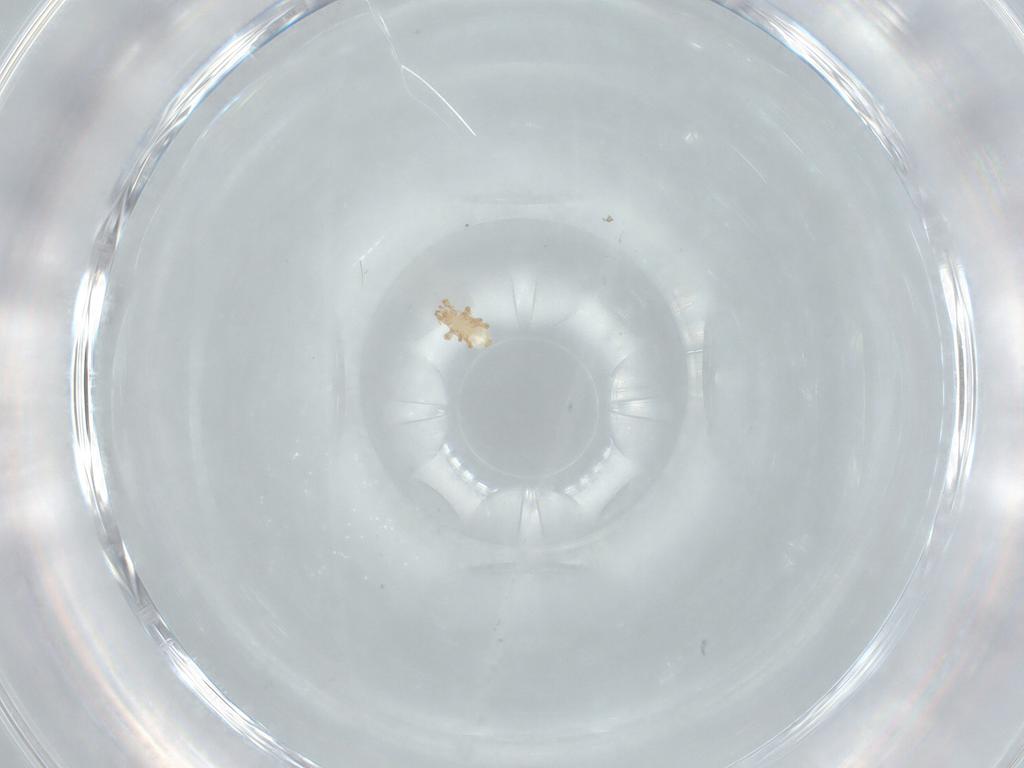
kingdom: Animalia
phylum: Arthropoda
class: Arachnida
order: Mesostigmata
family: Ascidae
